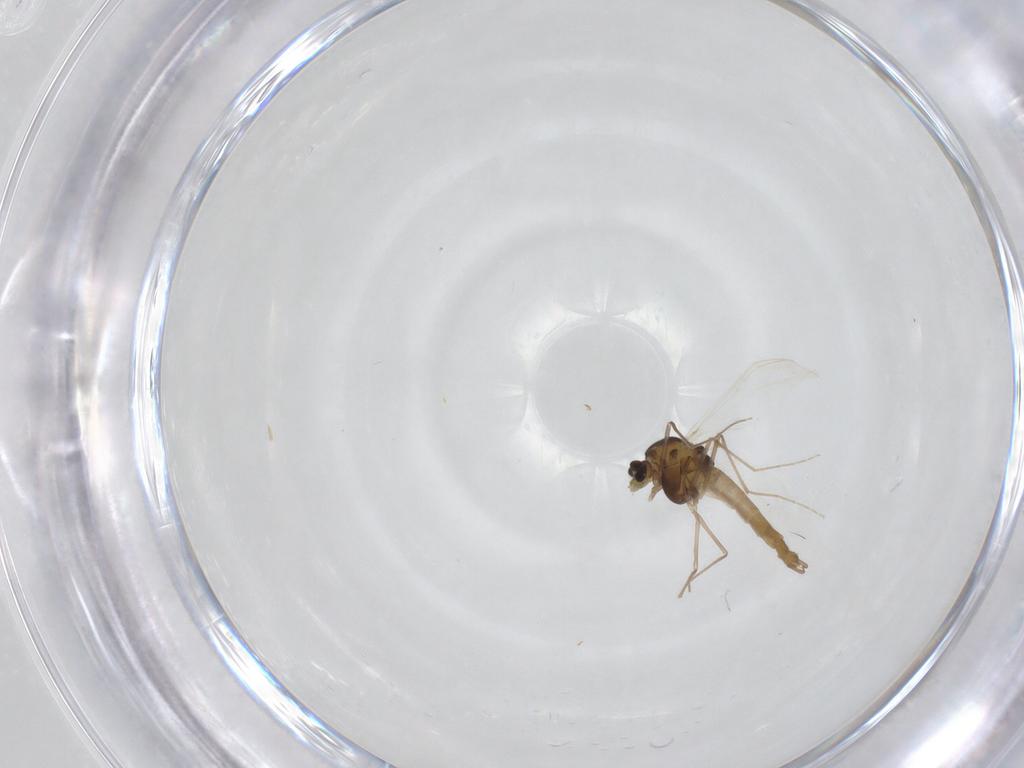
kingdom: Animalia
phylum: Arthropoda
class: Insecta
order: Diptera
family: Chironomidae
